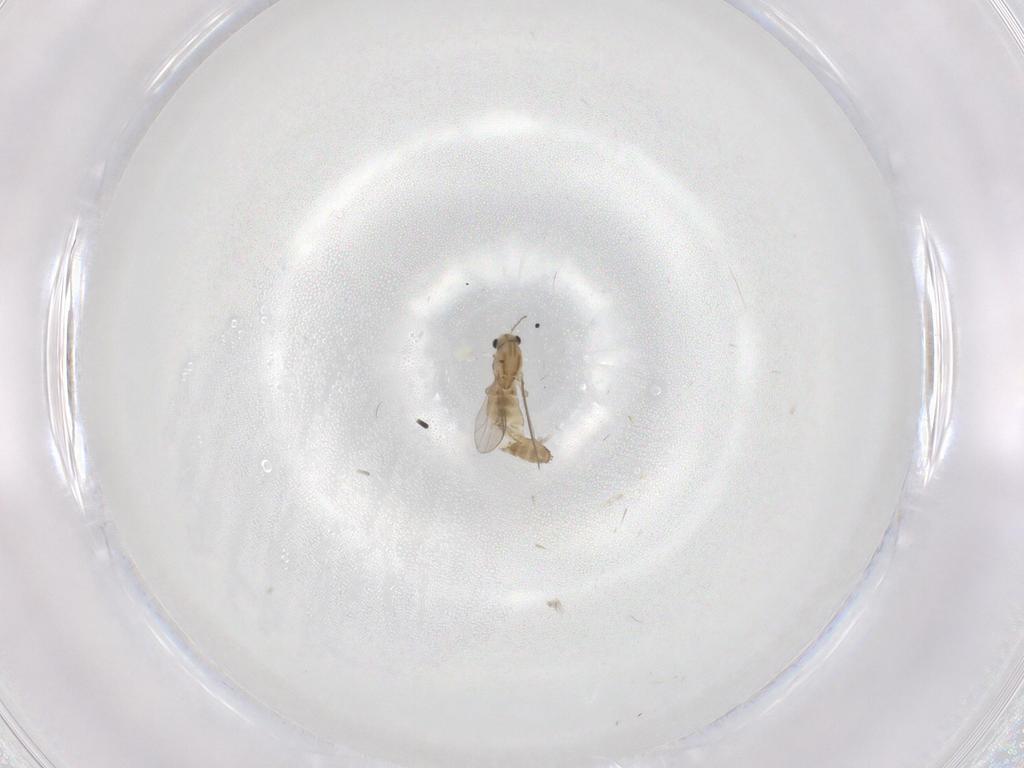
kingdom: Animalia
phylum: Arthropoda
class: Insecta
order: Diptera
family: Chironomidae
